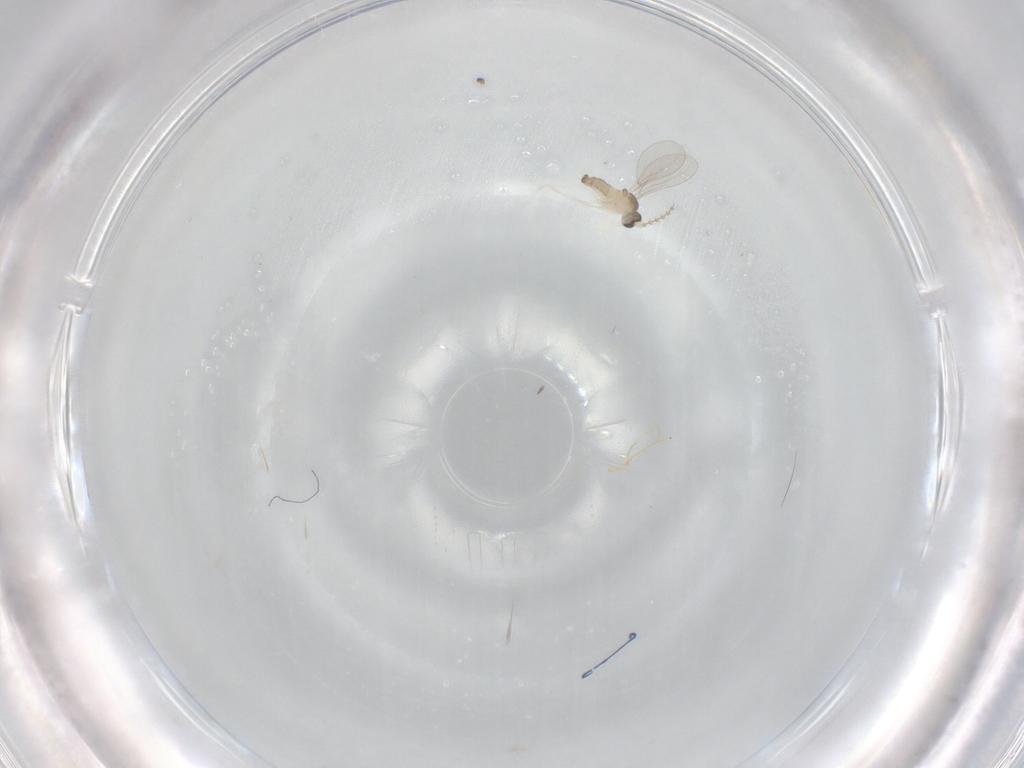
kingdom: Animalia
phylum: Arthropoda
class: Insecta
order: Diptera
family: Cecidomyiidae
